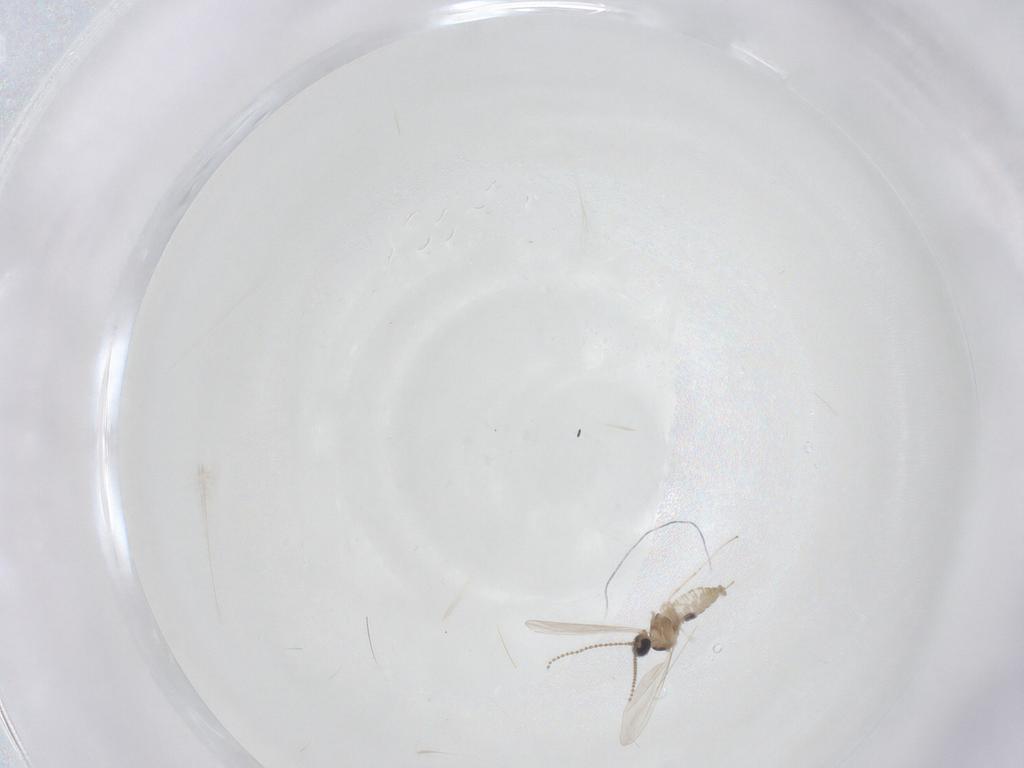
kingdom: Animalia
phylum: Arthropoda
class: Insecta
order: Diptera
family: Cecidomyiidae
